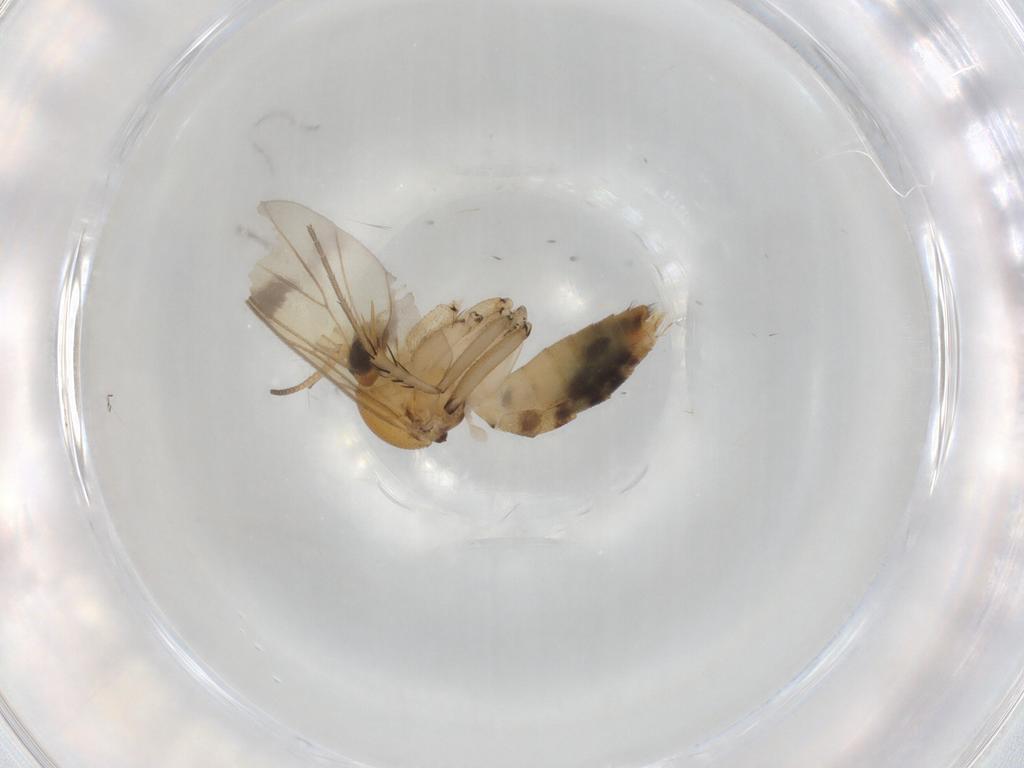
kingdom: Animalia
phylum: Arthropoda
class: Insecta
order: Diptera
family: Mycetophilidae
